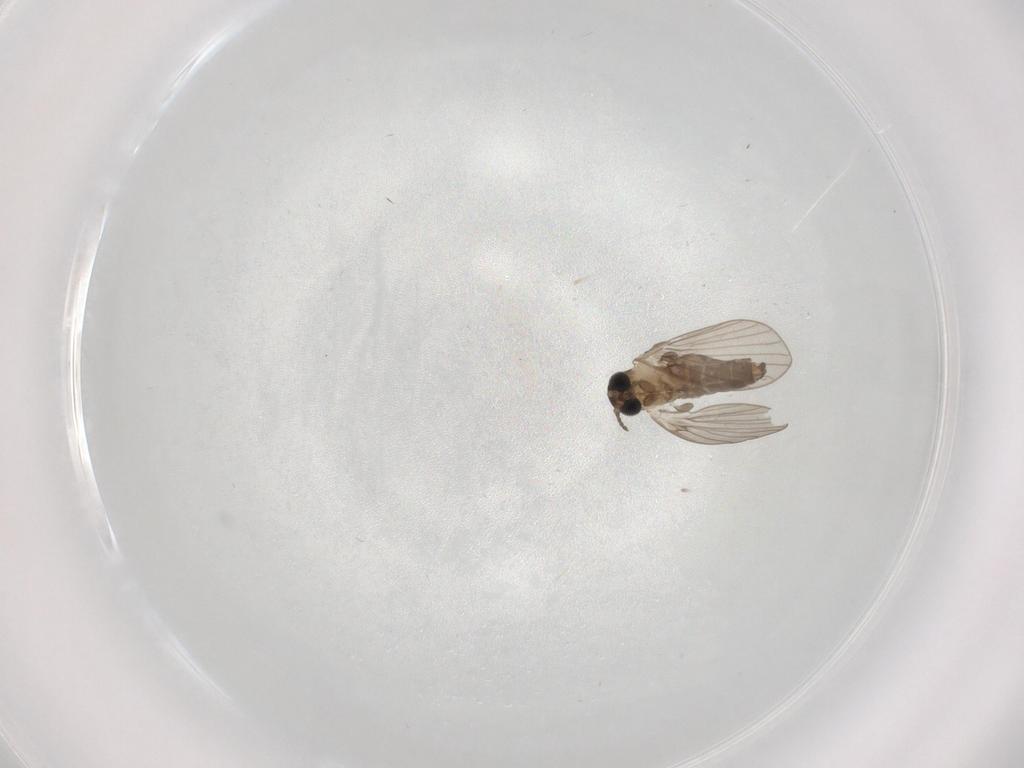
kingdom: Animalia
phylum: Arthropoda
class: Insecta
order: Diptera
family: Psychodidae
